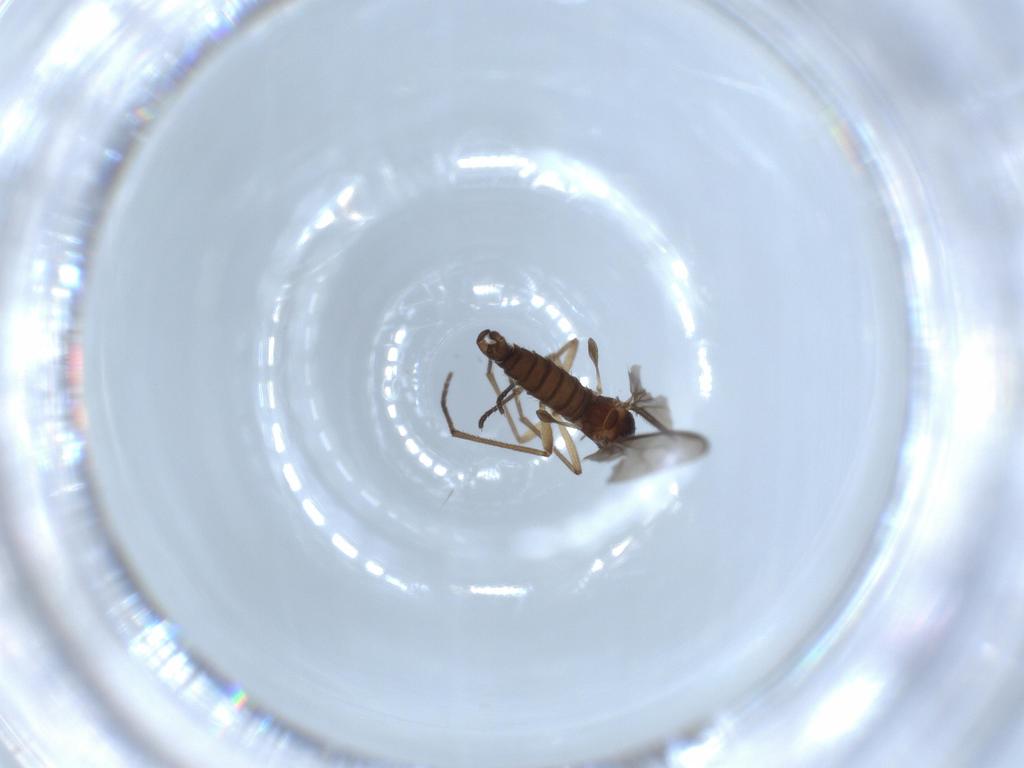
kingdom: Animalia
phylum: Arthropoda
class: Insecta
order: Diptera
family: Sciaridae
